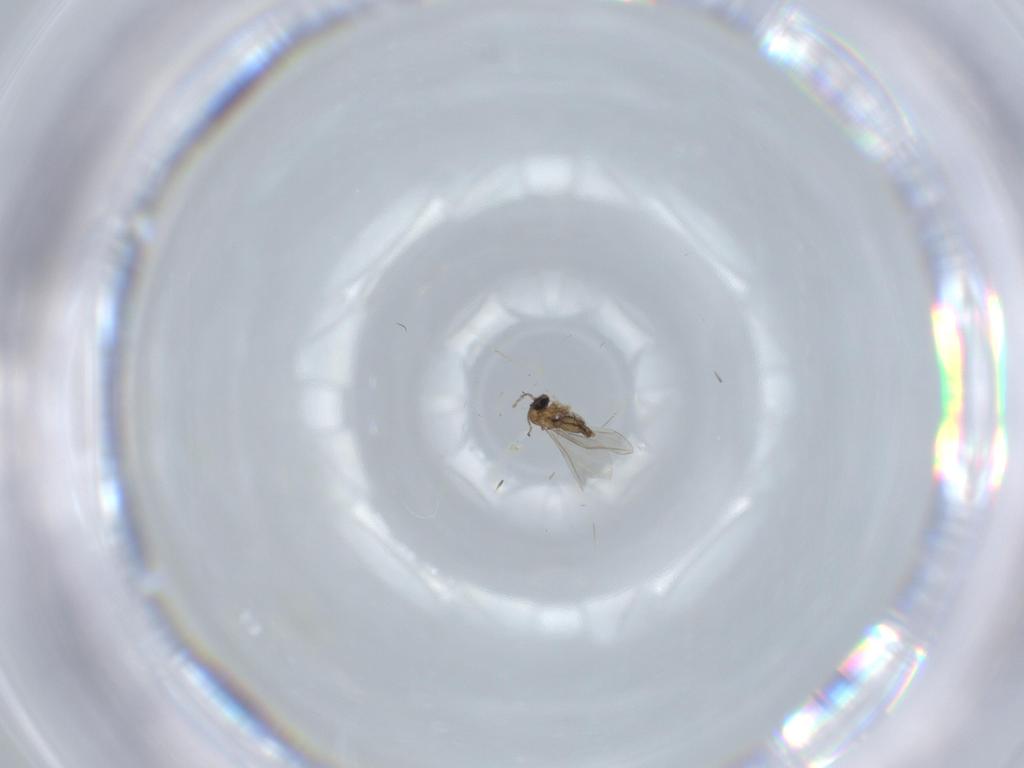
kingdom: Animalia
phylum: Arthropoda
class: Insecta
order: Diptera
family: Cecidomyiidae
